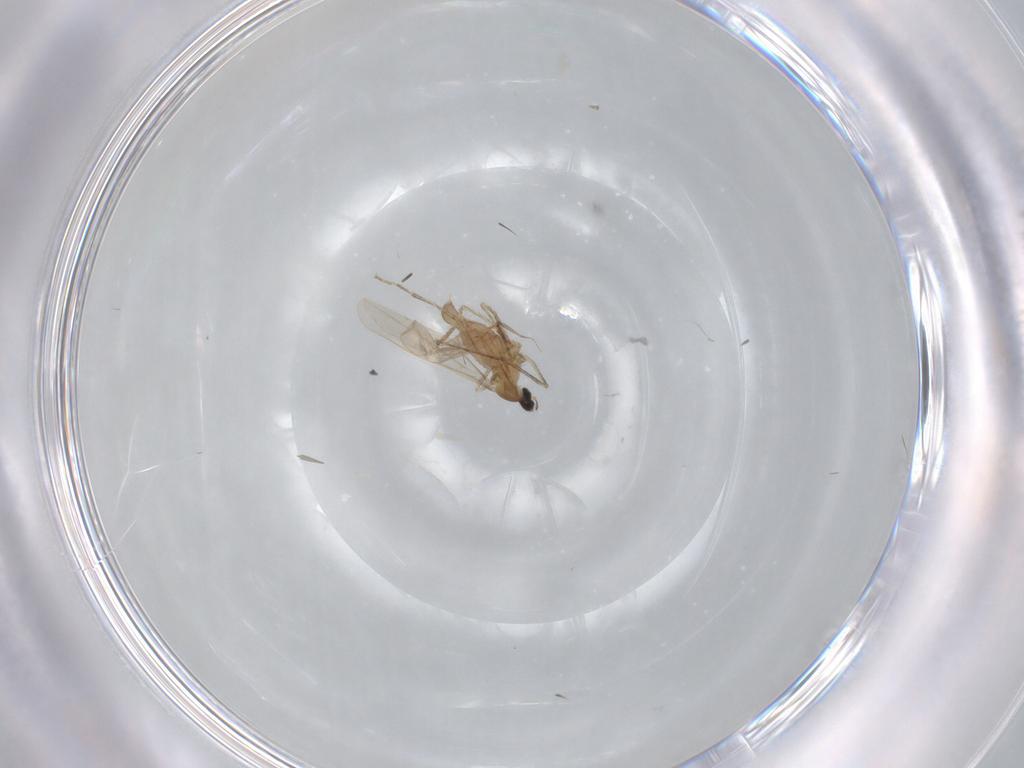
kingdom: Animalia
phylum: Arthropoda
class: Insecta
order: Diptera
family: Cecidomyiidae
